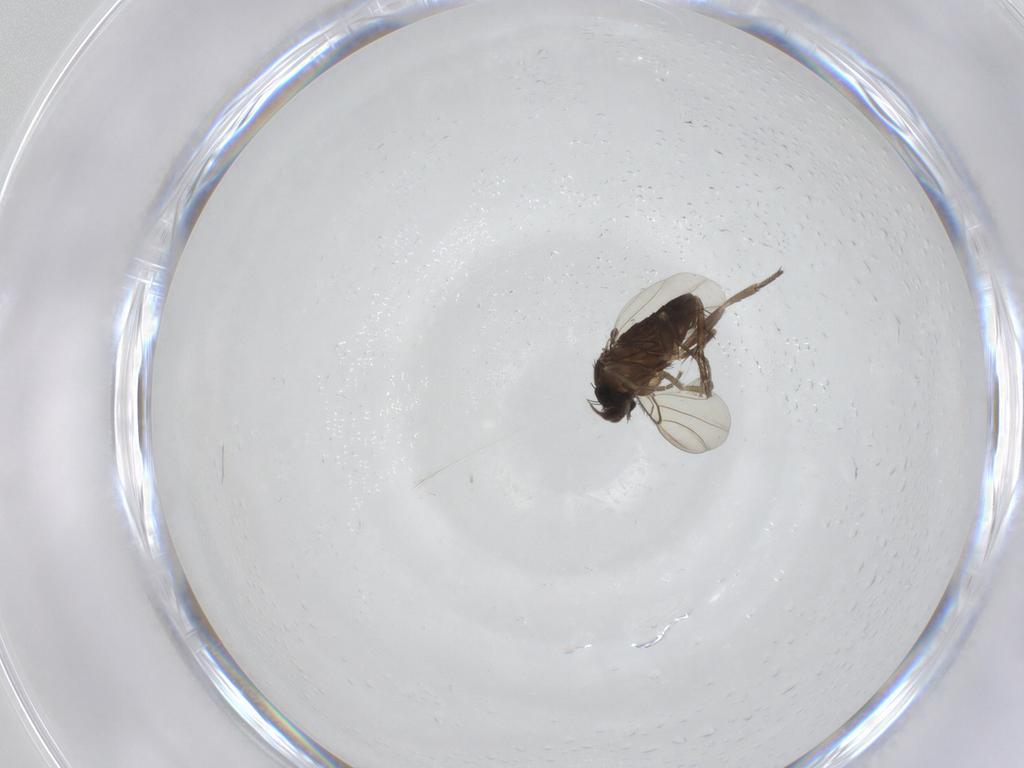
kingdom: Animalia
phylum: Arthropoda
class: Insecta
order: Diptera
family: Phoridae
